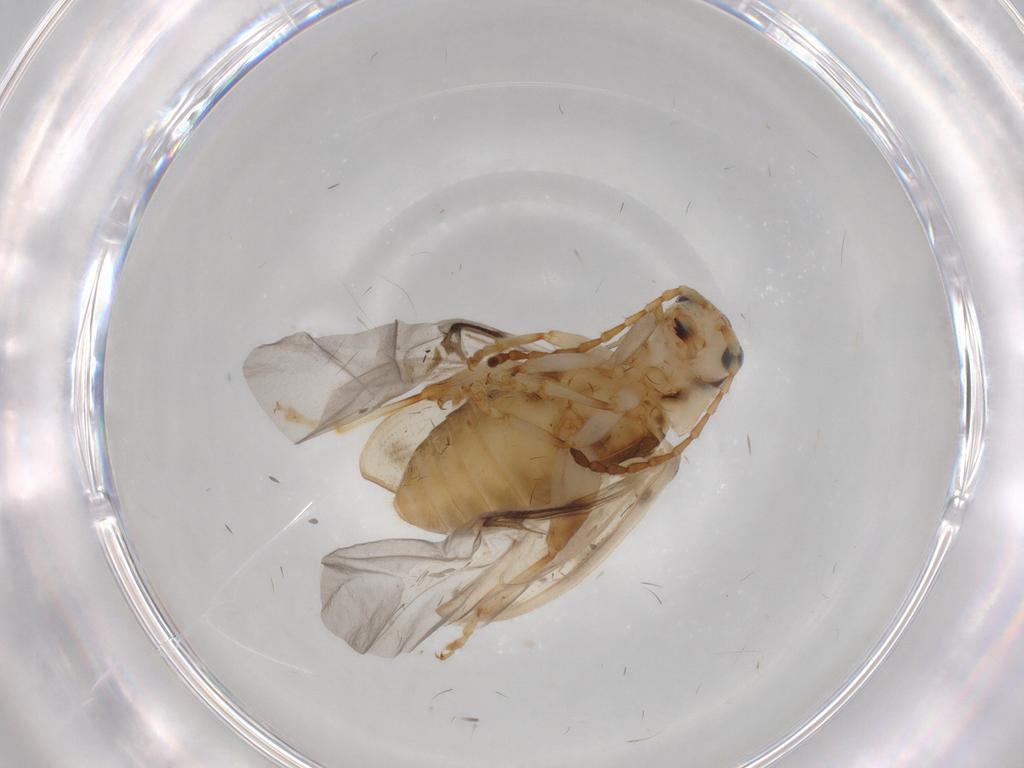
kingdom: Animalia
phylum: Arthropoda
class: Insecta
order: Coleoptera
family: Chrysomelidae
